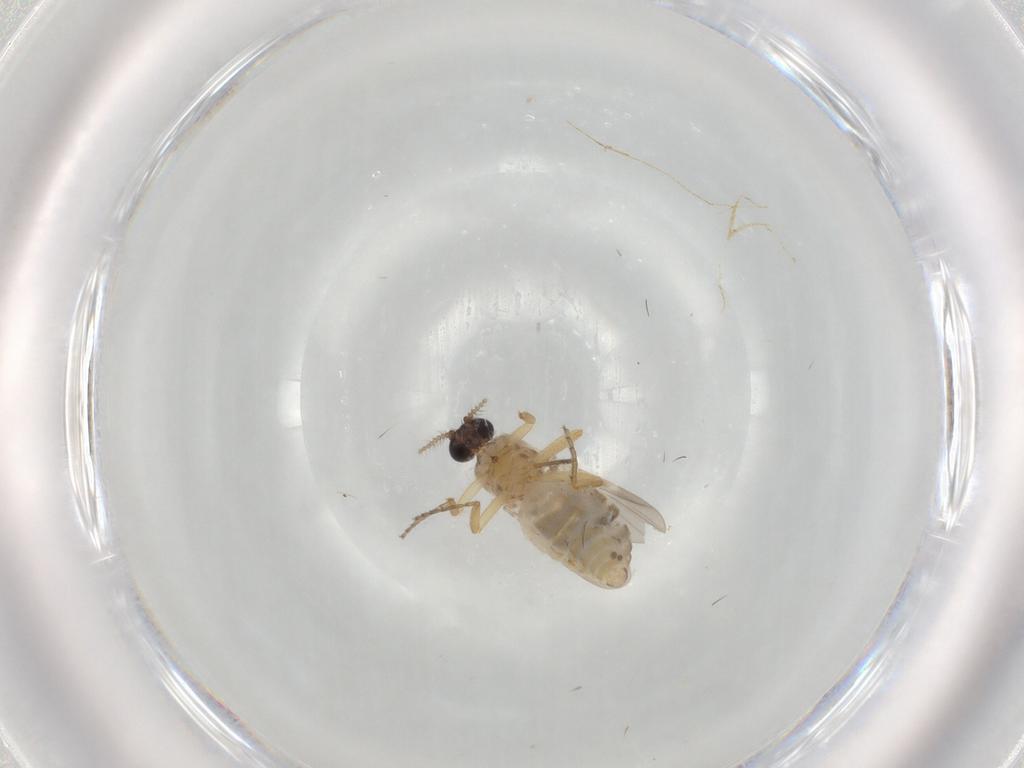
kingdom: Animalia
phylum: Arthropoda
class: Insecta
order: Diptera
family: Ceratopogonidae
